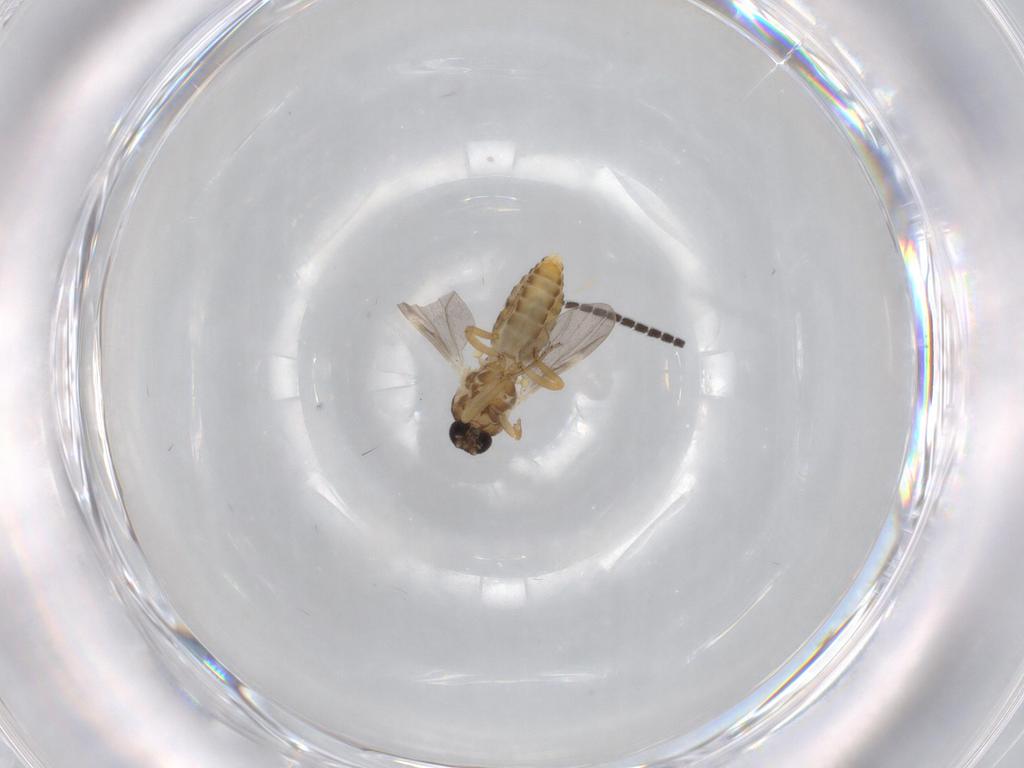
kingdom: Animalia
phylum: Arthropoda
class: Insecta
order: Diptera
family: Ceratopogonidae
